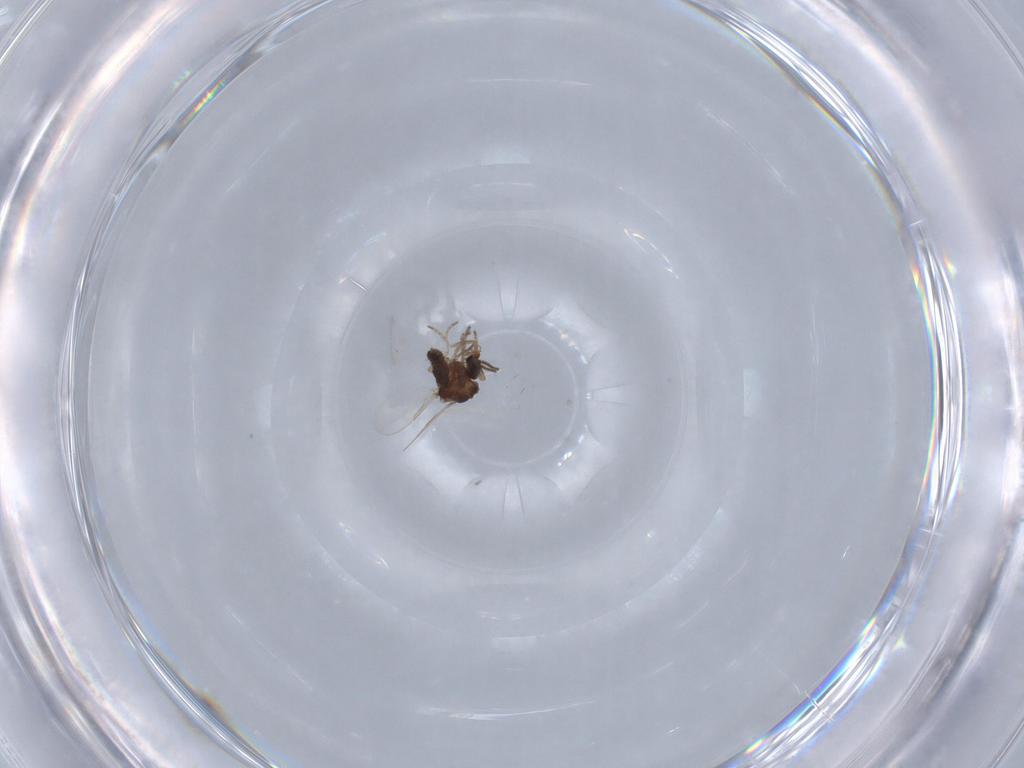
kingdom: Animalia
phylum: Arthropoda
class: Insecta
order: Diptera
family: Ceratopogonidae
